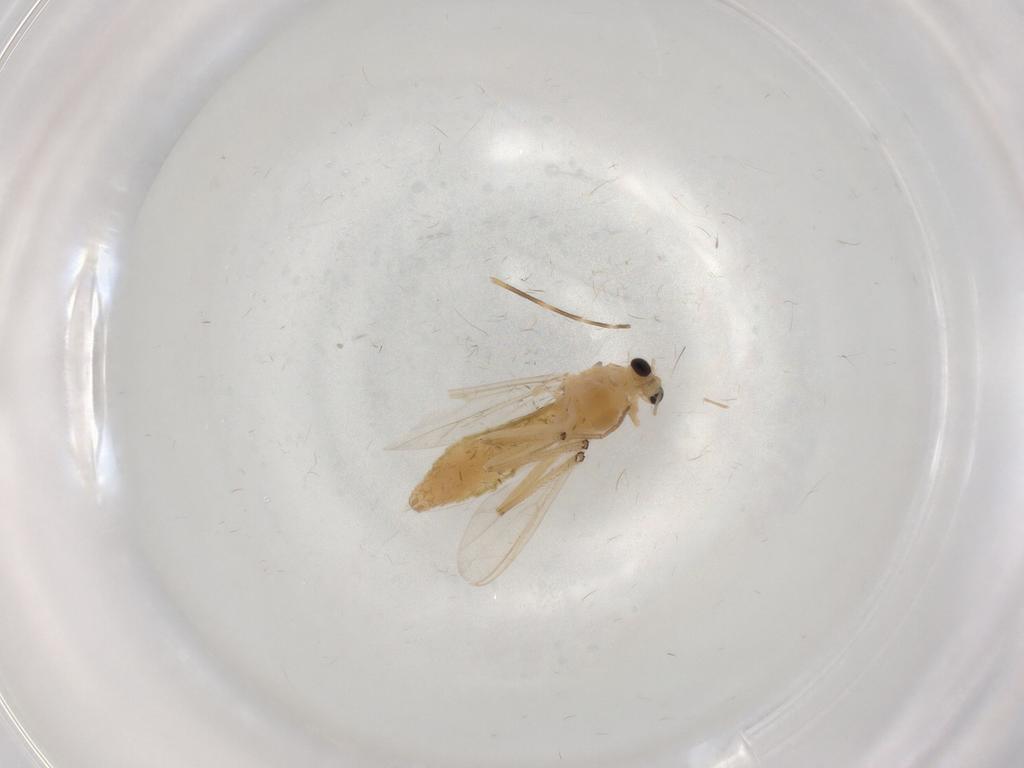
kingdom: Animalia
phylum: Arthropoda
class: Insecta
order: Diptera
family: Chironomidae
